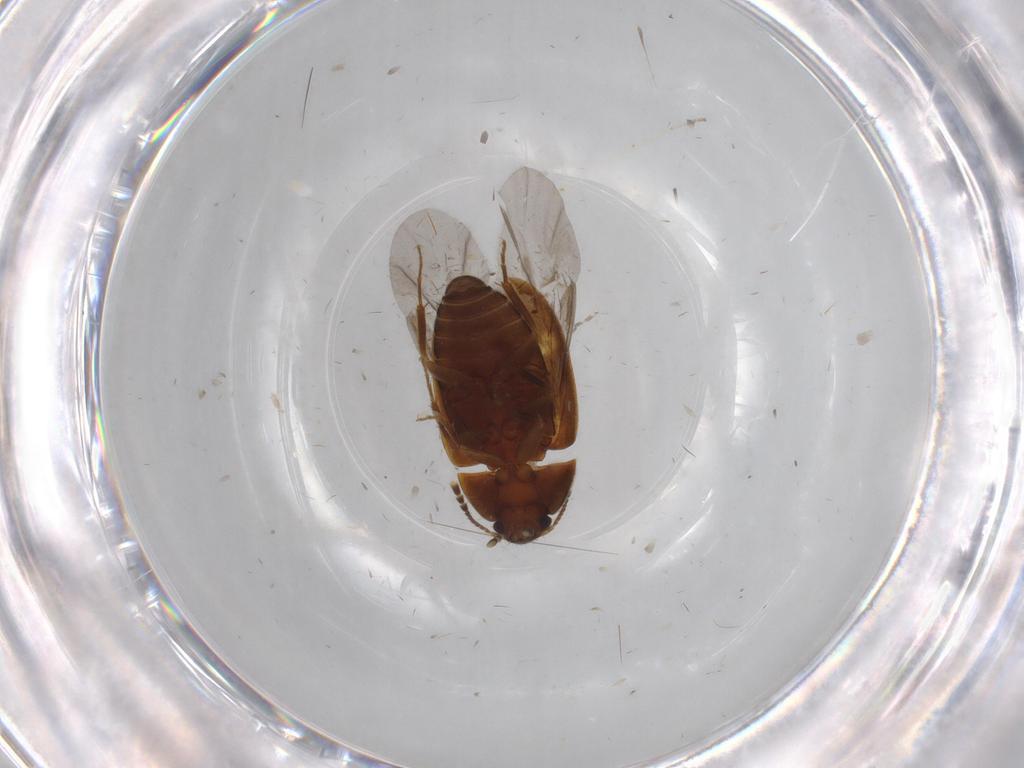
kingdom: Animalia
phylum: Arthropoda
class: Insecta
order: Coleoptera
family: Mycetophagidae
